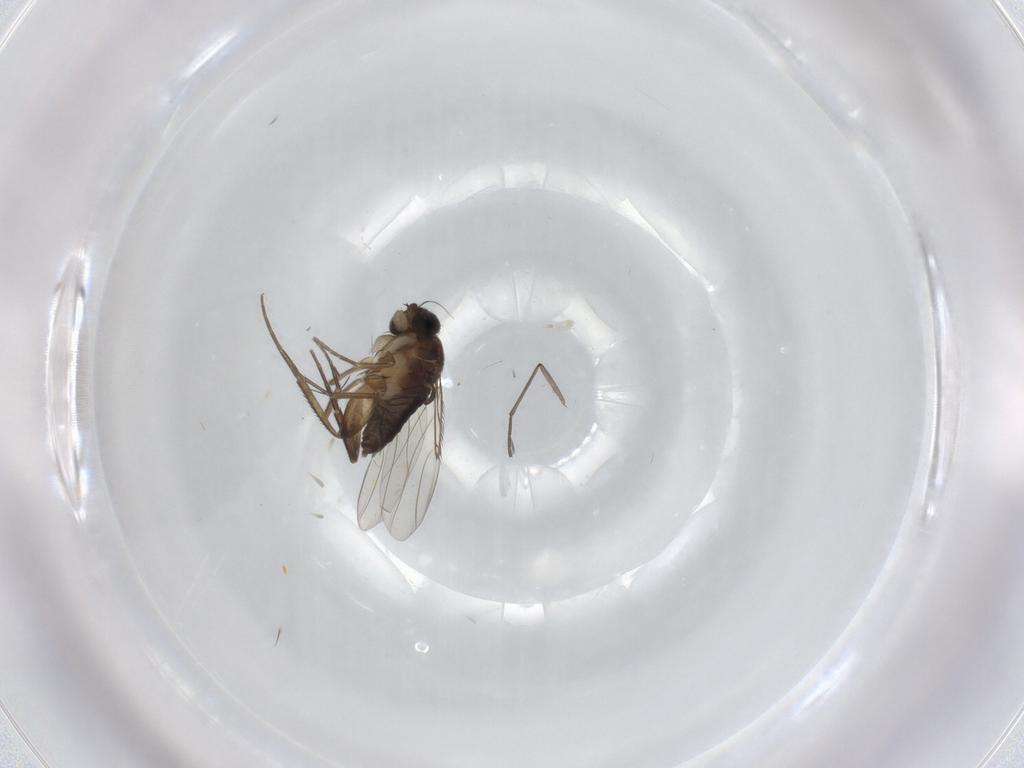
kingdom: Animalia
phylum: Arthropoda
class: Insecta
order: Diptera
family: Phoridae
